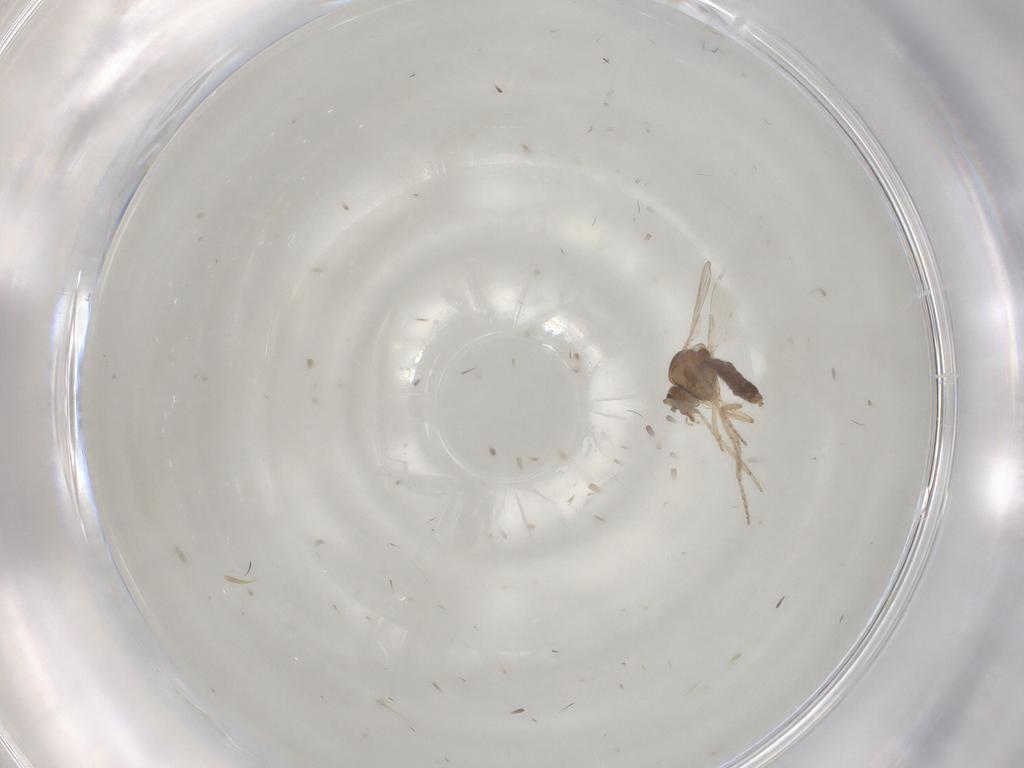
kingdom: Animalia
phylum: Arthropoda
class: Insecta
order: Diptera
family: Ceratopogonidae
